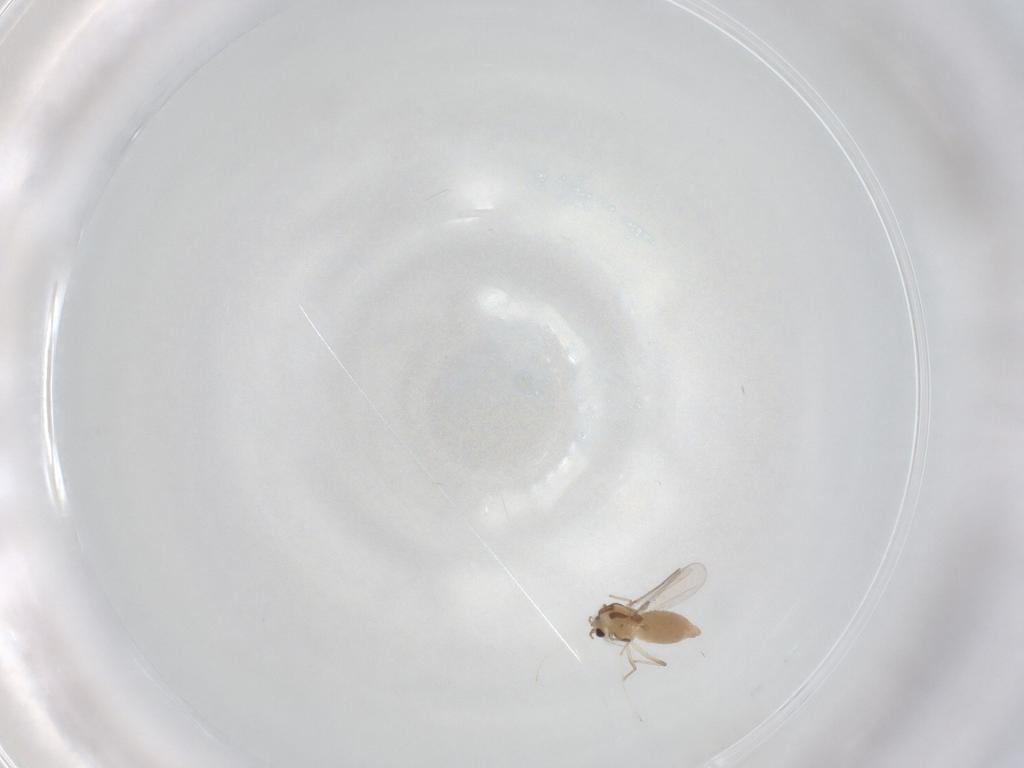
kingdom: Animalia
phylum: Arthropoda
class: Insecta
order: Diptera
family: Chironomidae
